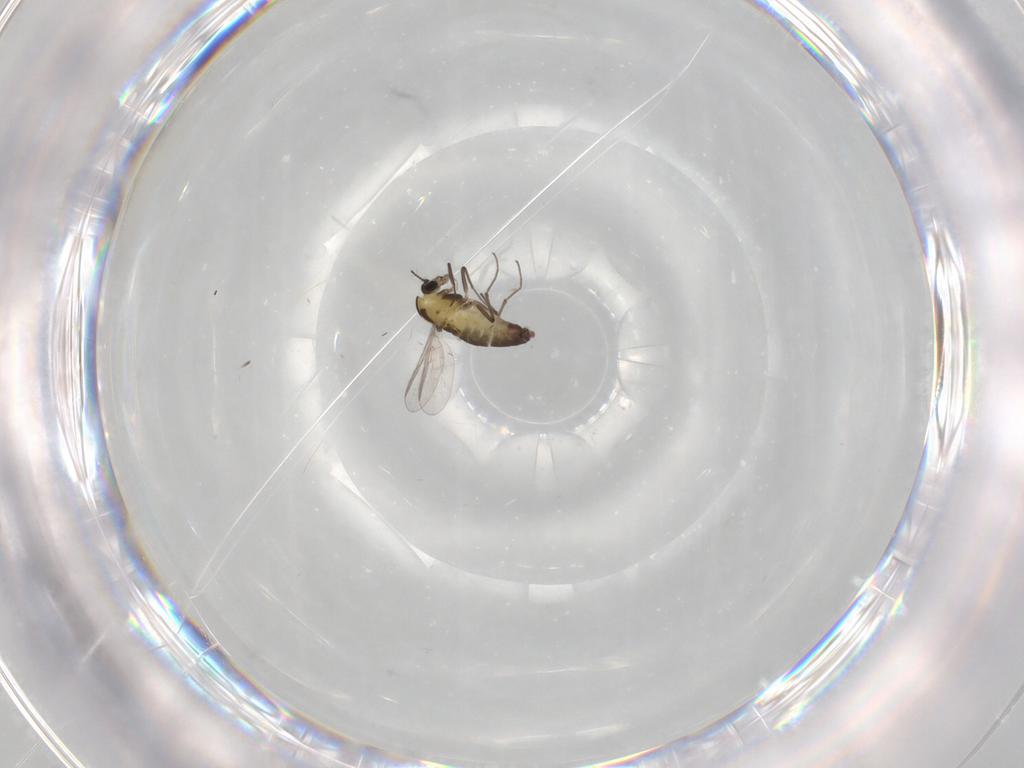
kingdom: Animalia
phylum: Arthropoda
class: Insecta
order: Diptera
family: Chironomidae
